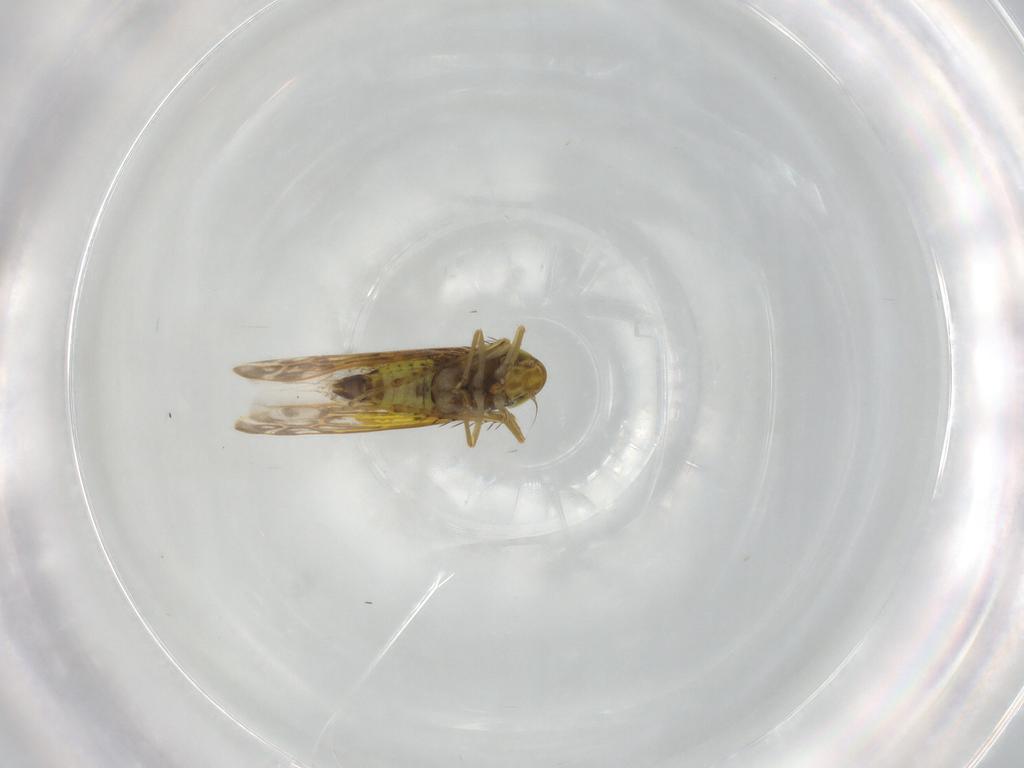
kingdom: Animalia
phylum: Arthropoda
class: Insecta
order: Hemiptera
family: Cicadellidae
